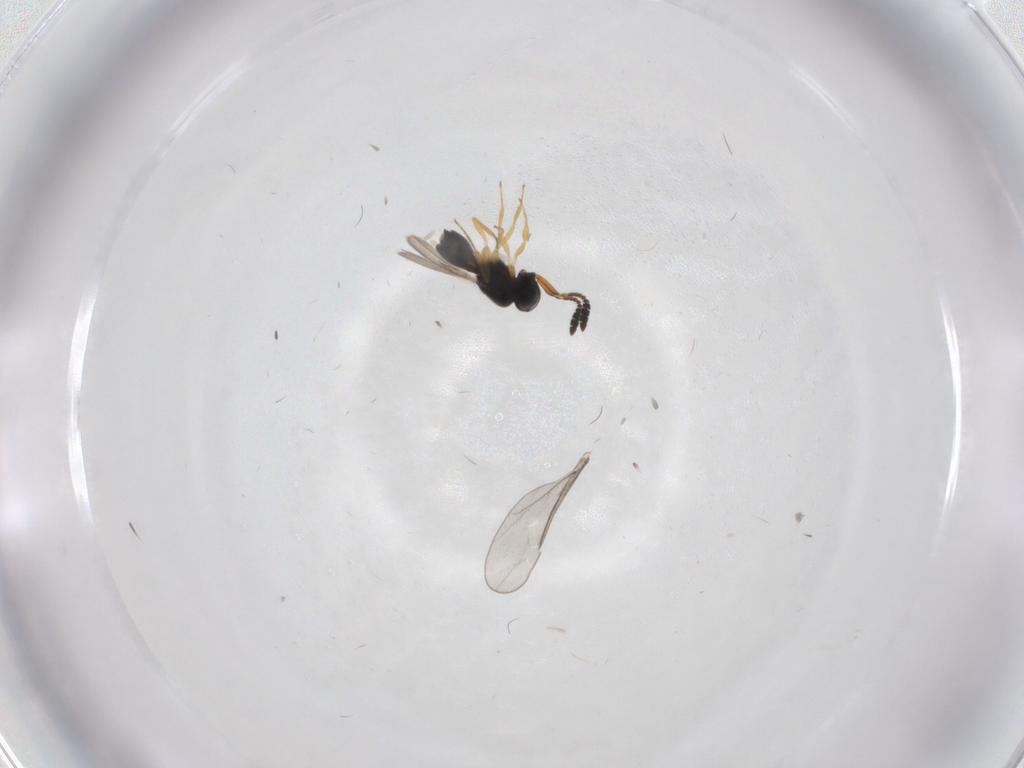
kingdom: Animalia
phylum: Arthropoda
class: Insecta
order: Hymenoptera
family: Scelionidae
